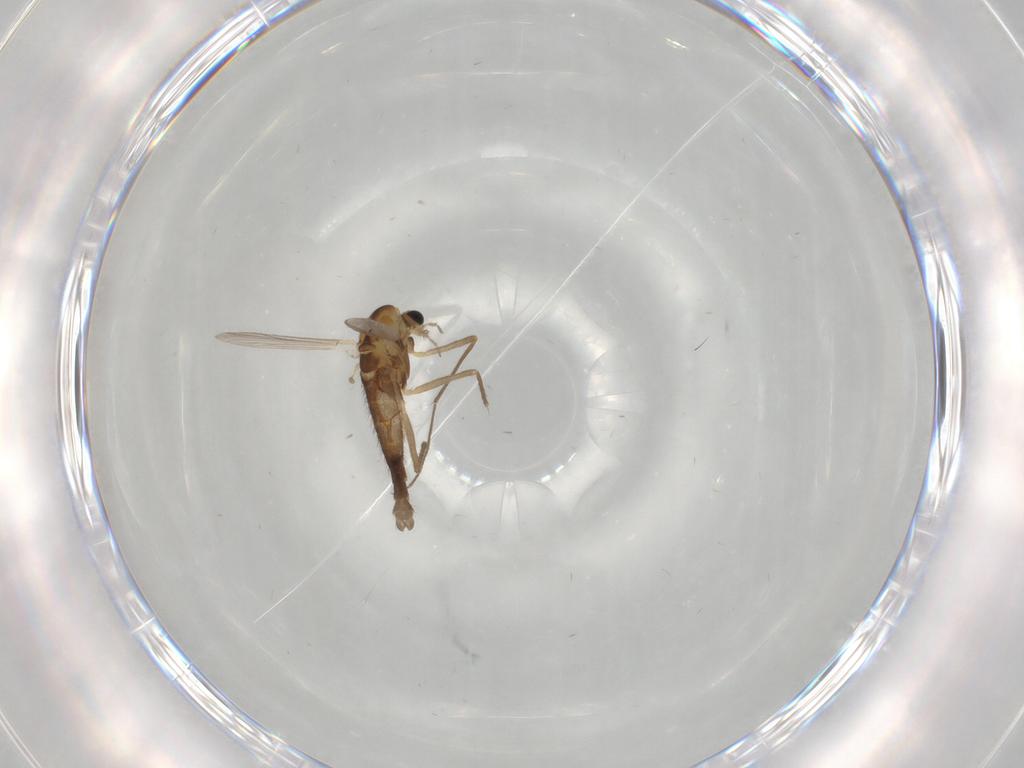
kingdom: Animalia
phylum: Arthropoda
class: Insecta
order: Diptera
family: Chironomidae
